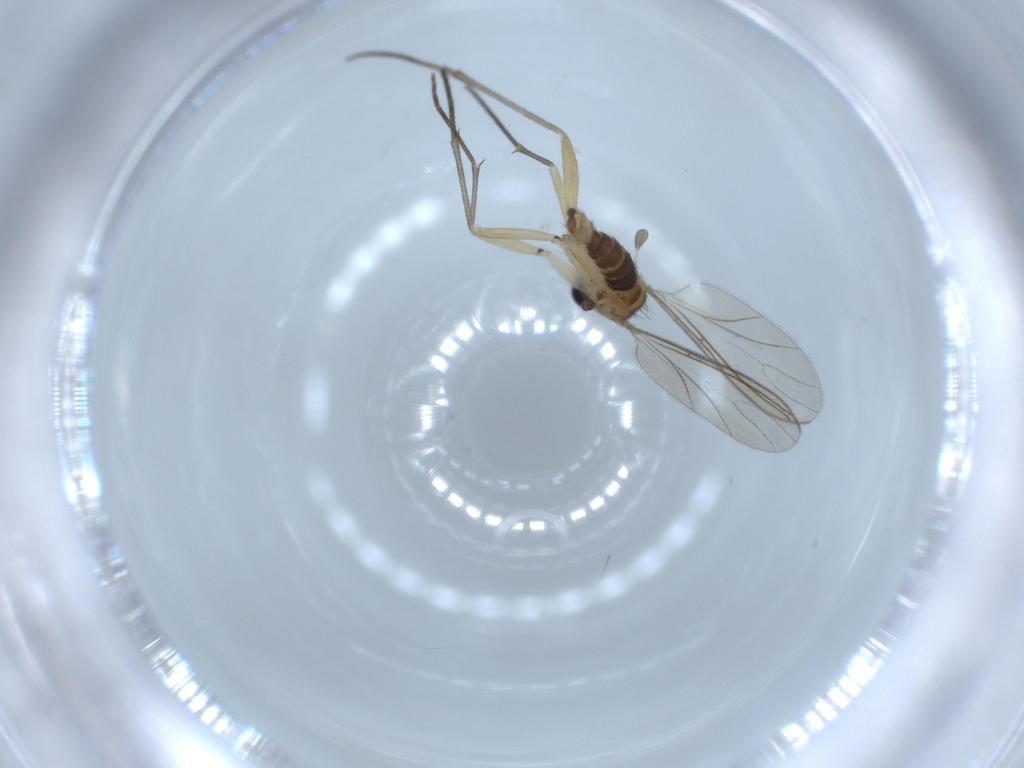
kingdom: Animalia
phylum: Arthropoda
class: Insecta
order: Diptera
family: Sciaridae
